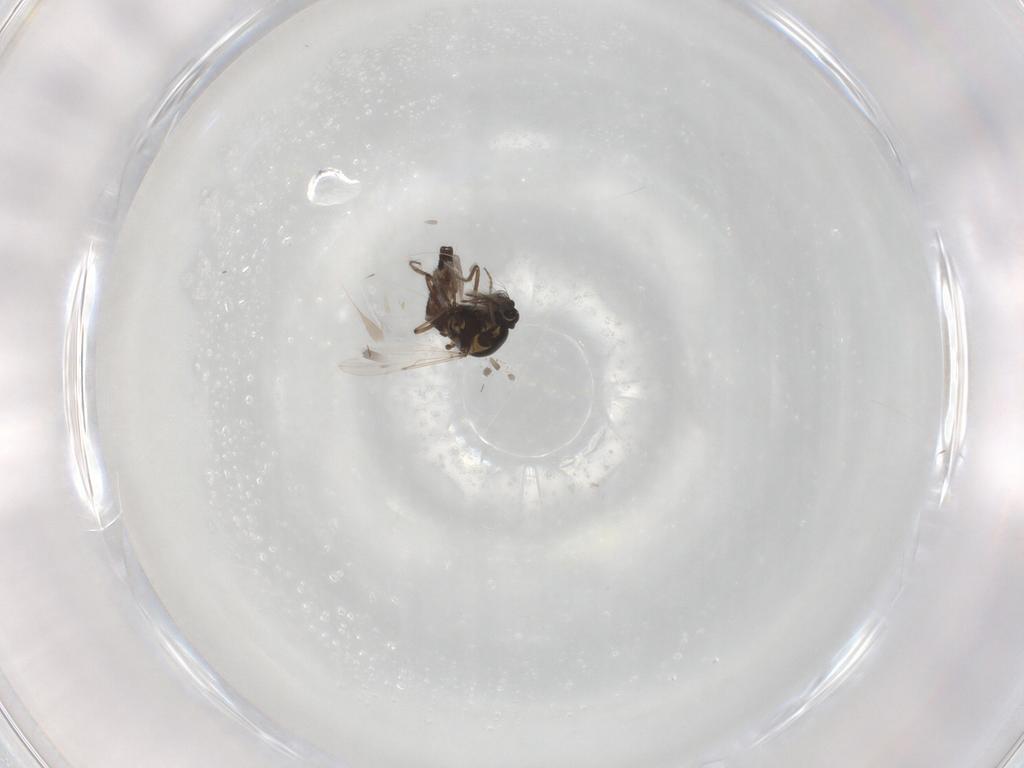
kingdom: Animalia
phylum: Arthropoda
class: Insecta
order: Diptera
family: Ceratopogonidae
